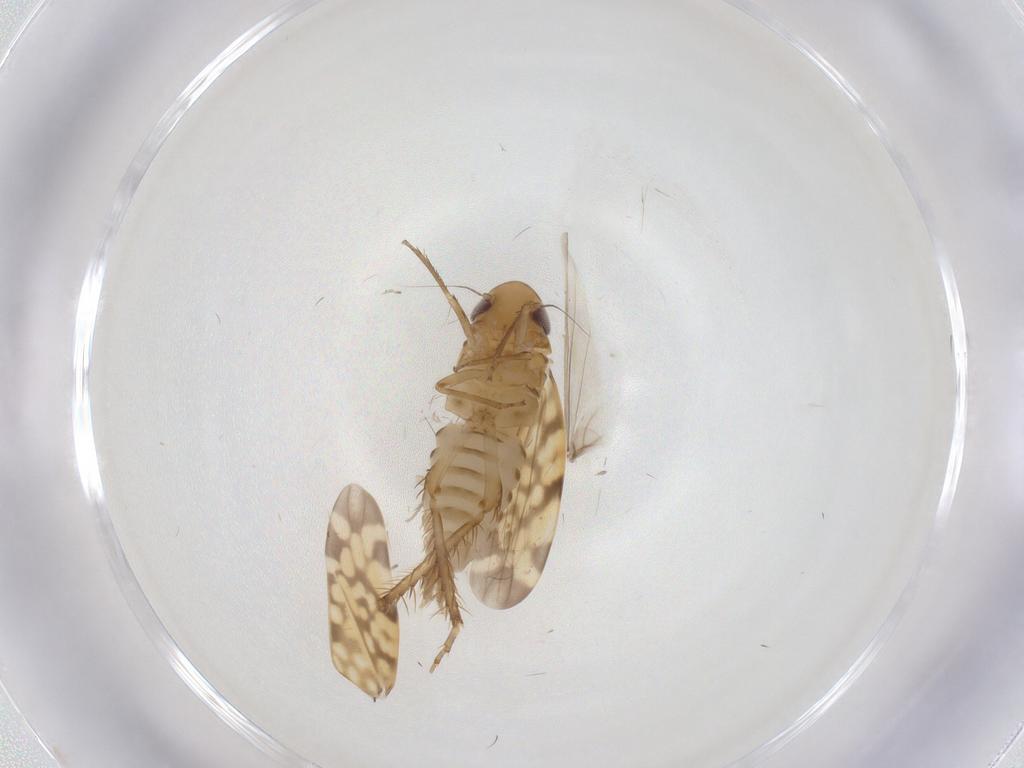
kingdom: Animalia
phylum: Arthropoda
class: Insecta
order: Hemiptera
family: Cicadellidae
